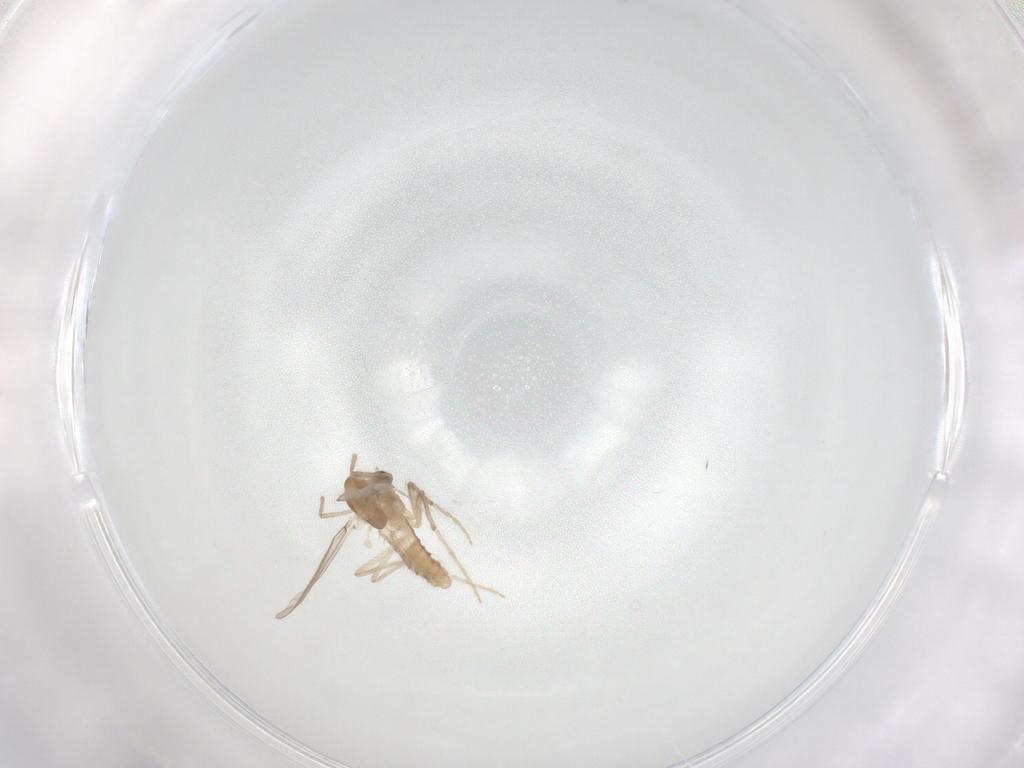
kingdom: Animalia
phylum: Arthropoda
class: Insecta
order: Diptera
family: Chironomidae
